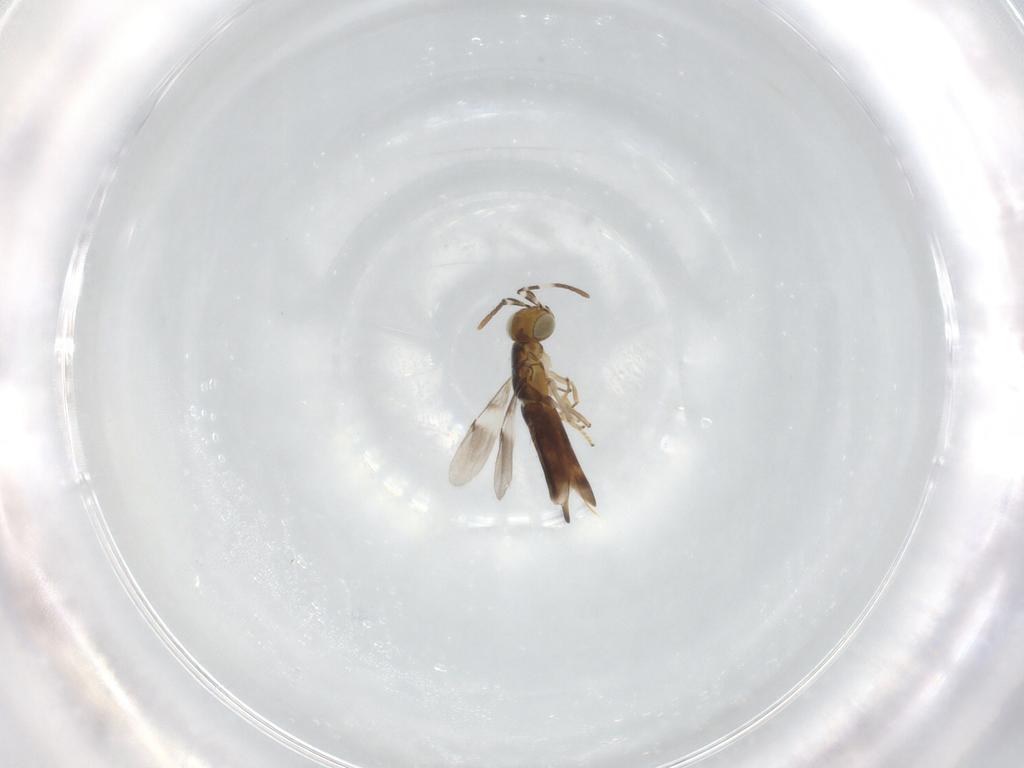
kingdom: Animalia
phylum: Arthropoda
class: Insecta
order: Hymenoptera
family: Encyrtidae
